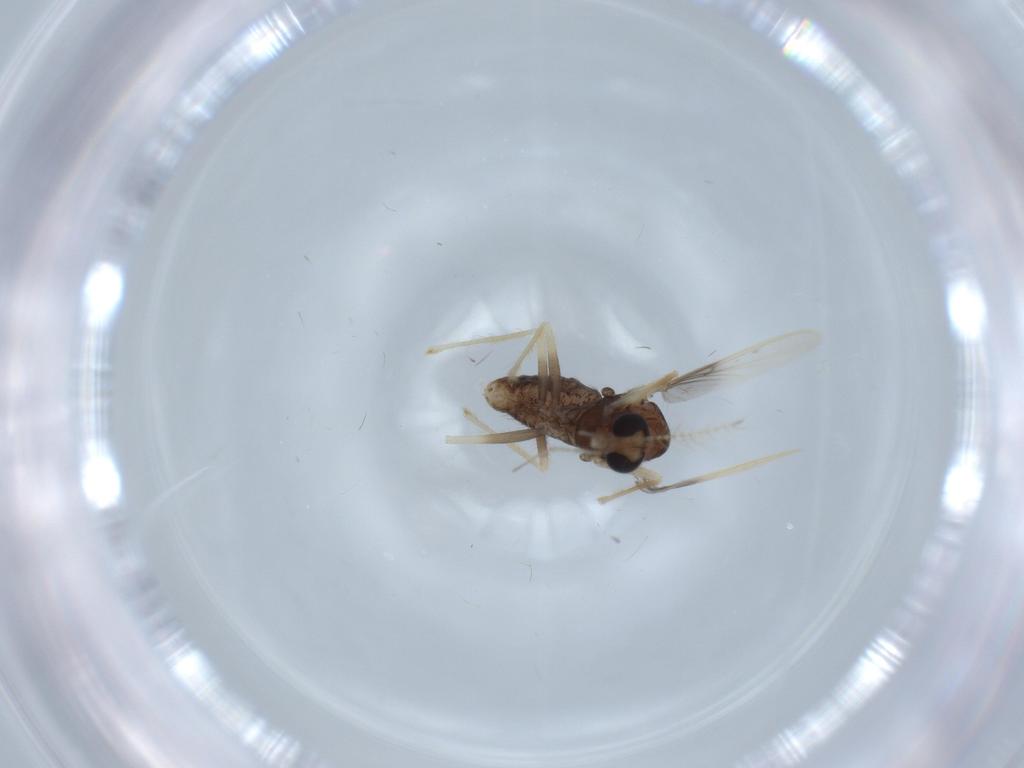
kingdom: Animalia
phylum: Arthropoda
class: Insecta
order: Diptera
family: Chironomidae
